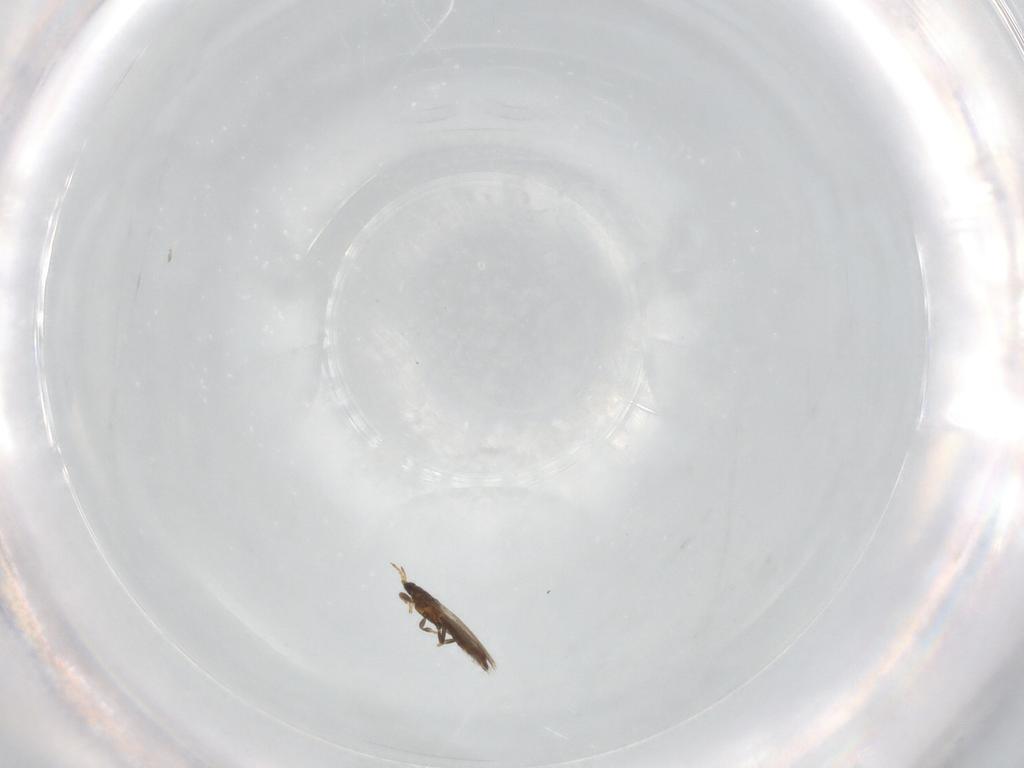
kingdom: Animalia
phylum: Arthropoda
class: Insecta
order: Thysanoptera
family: Thripidae
